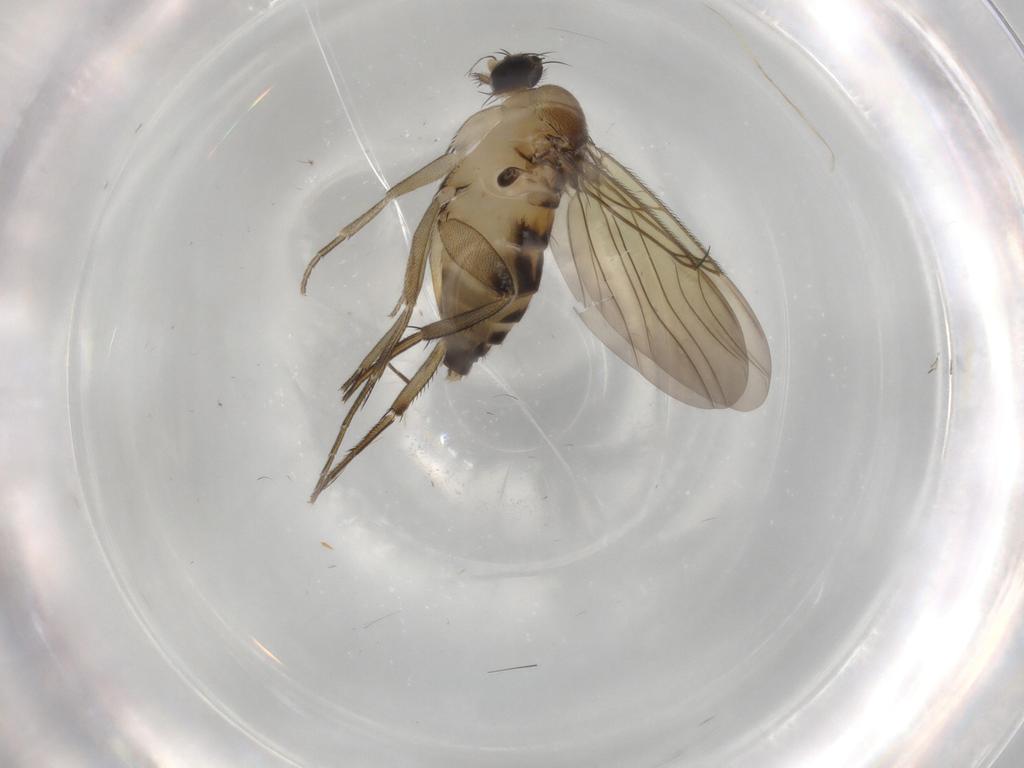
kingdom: Animalia
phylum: Arthropoda
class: Insecta
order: Diptera
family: Phoridae
